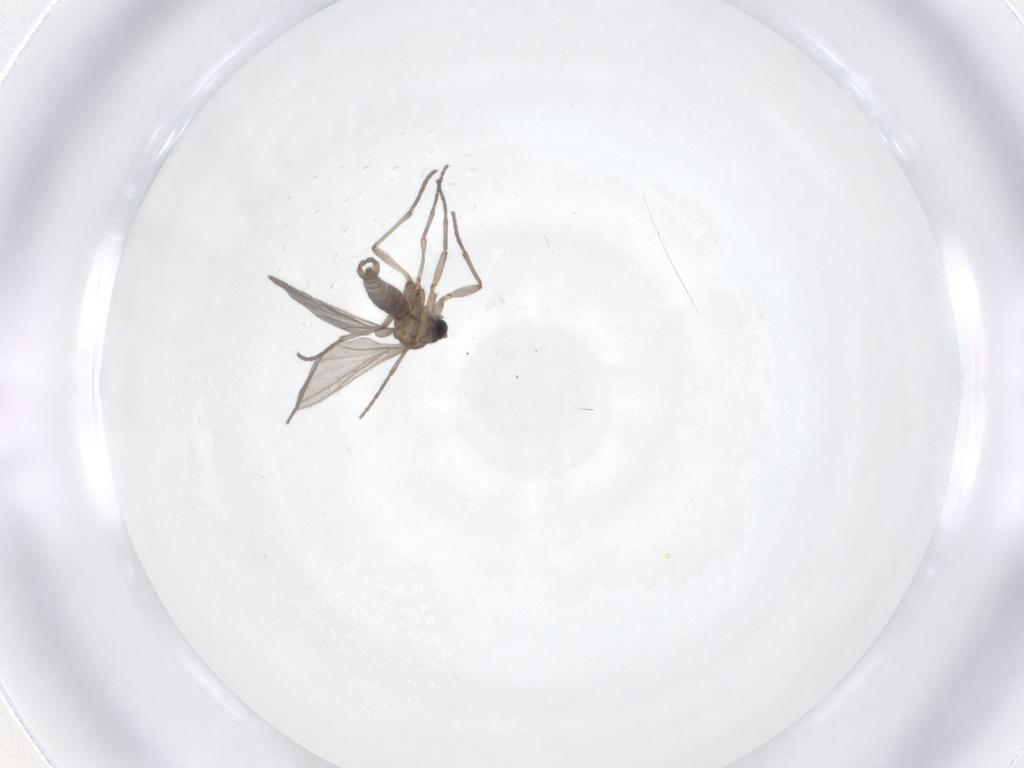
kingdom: Animalia
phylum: Arthropoda
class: Insecta
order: Diptera
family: Sciaridae
